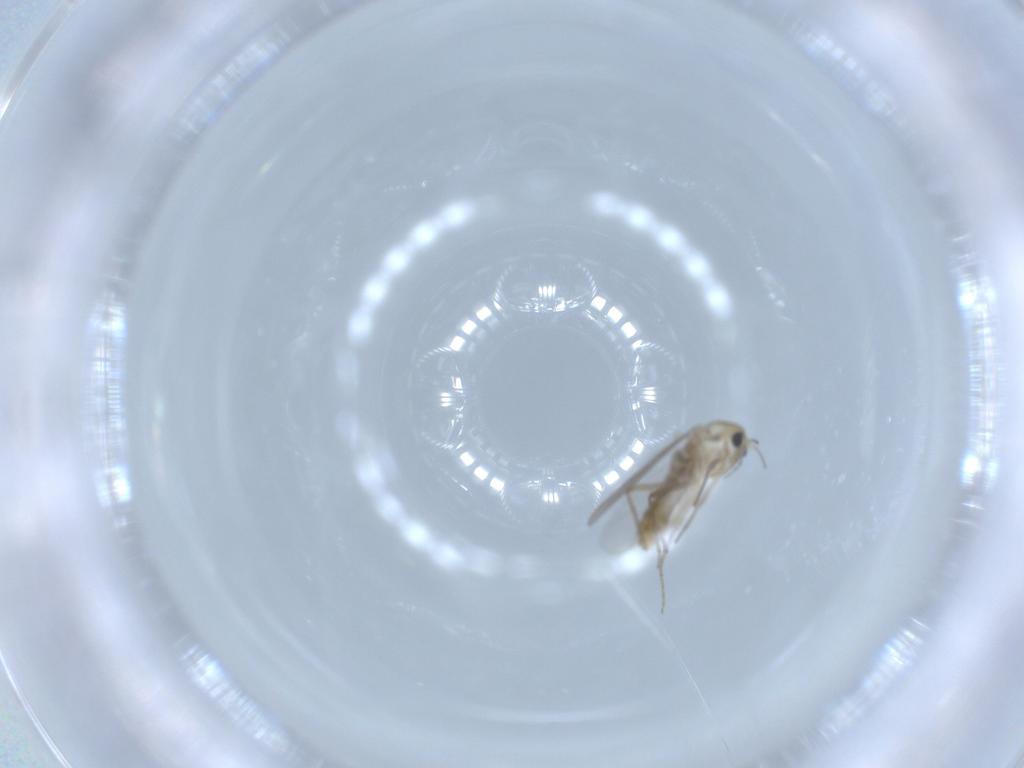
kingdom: Animalia
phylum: Arthropoda
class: Insecta
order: Diptera
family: Chironomidae
